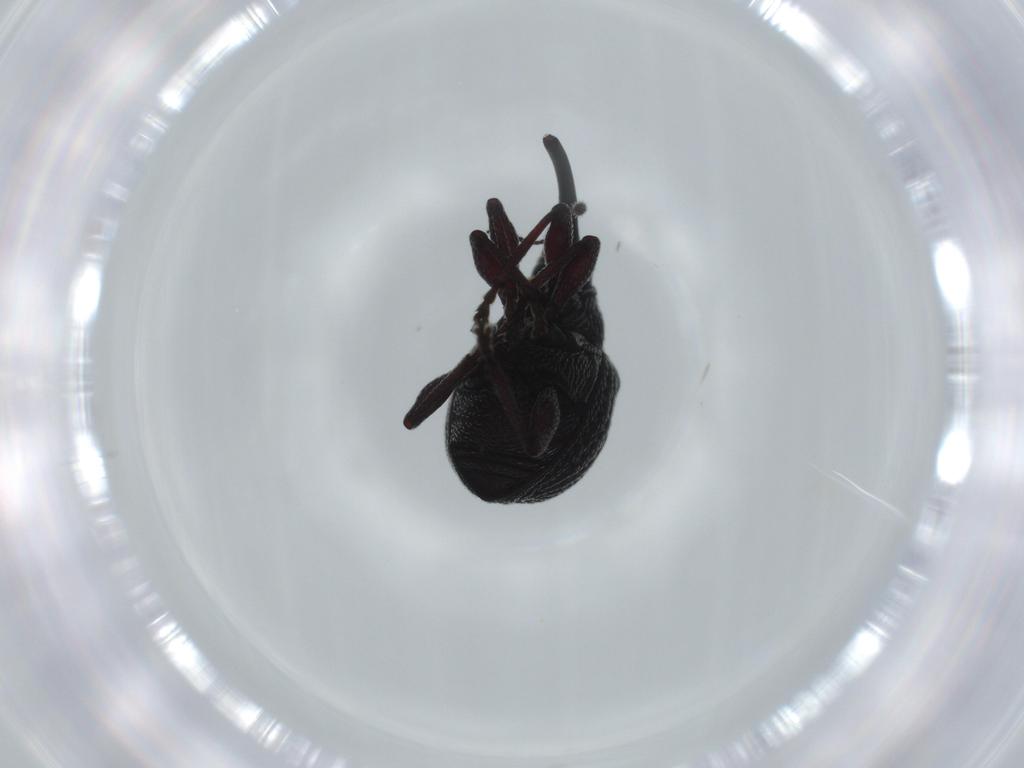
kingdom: Animalia
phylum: Arthropoda
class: Insecta
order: Coleoptera
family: Brentidae
